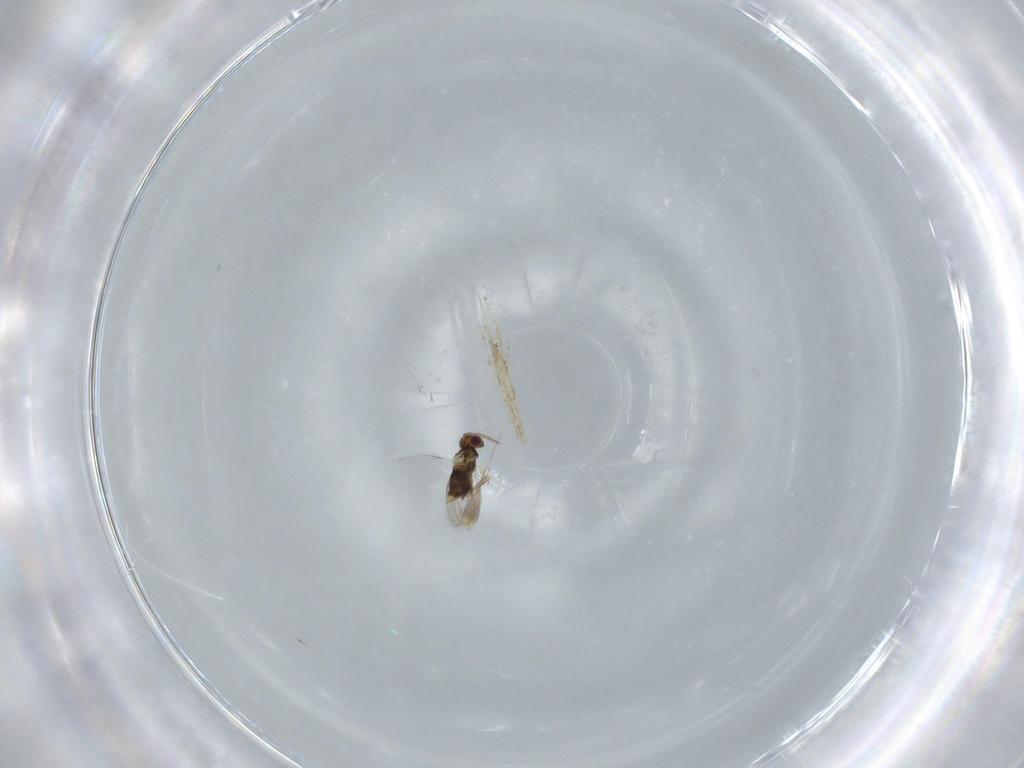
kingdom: Animalia
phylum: Arthropoda
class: Insecta
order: Hymenoptera
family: Aphelinidae
